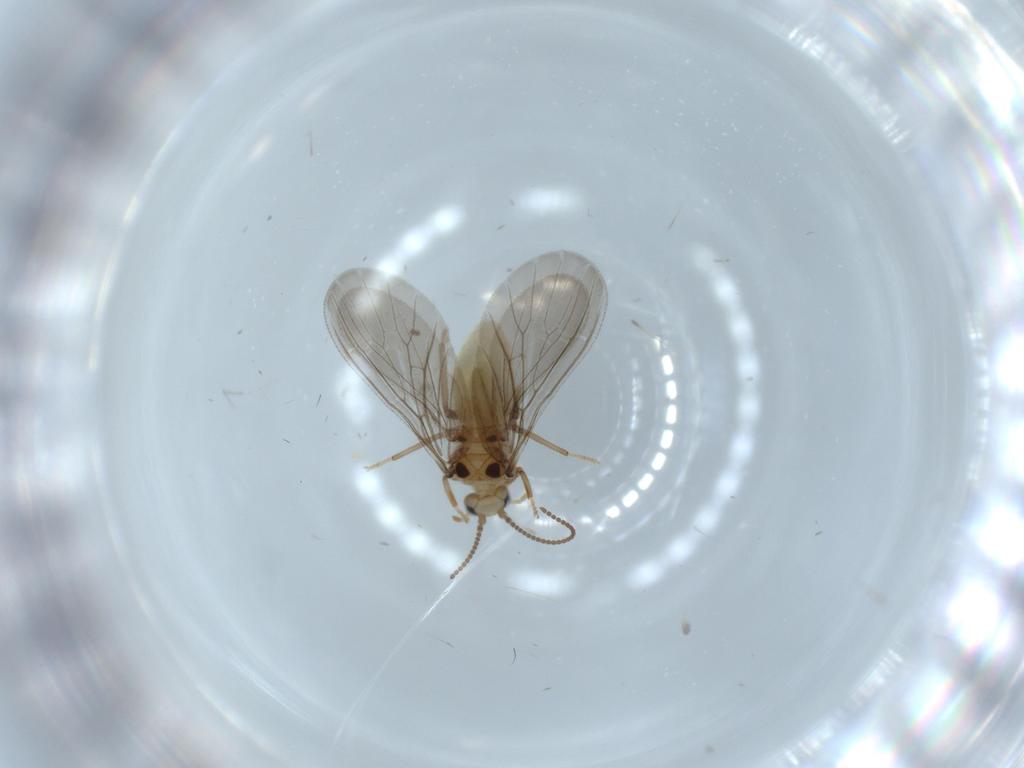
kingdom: Animalia
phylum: Arthropoda
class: Insecta
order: Neuroptera
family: Coniopterygidae
